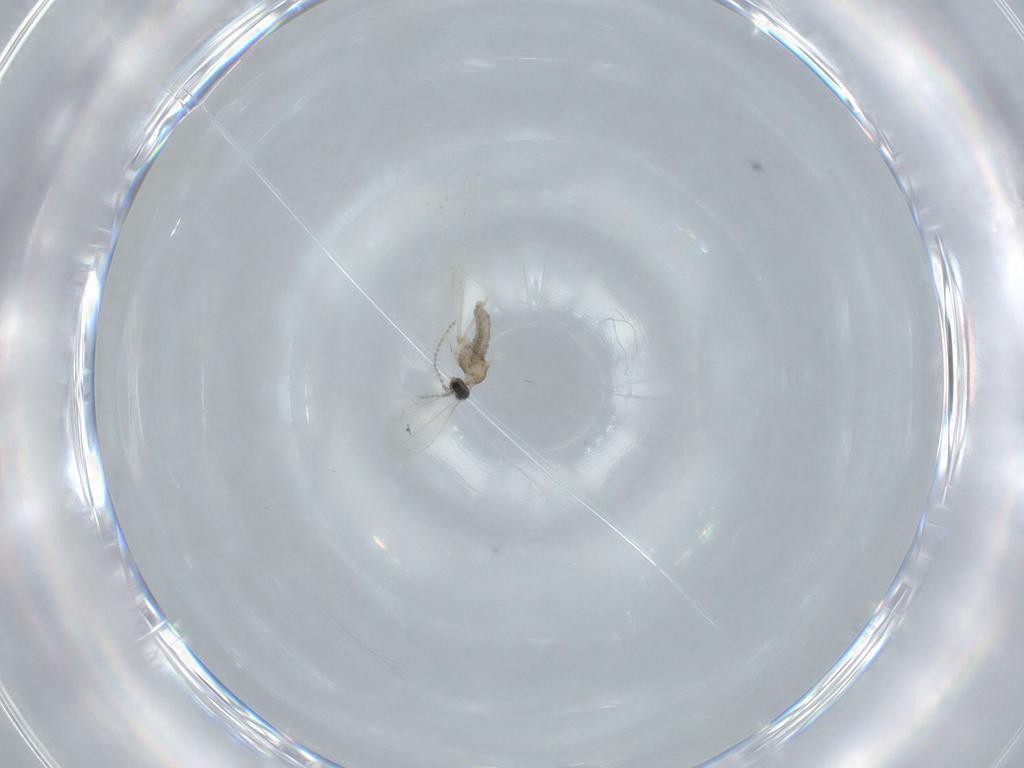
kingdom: Animalia
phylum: Arthropoda
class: Insecta
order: Diptera
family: Cecidomyiidae
